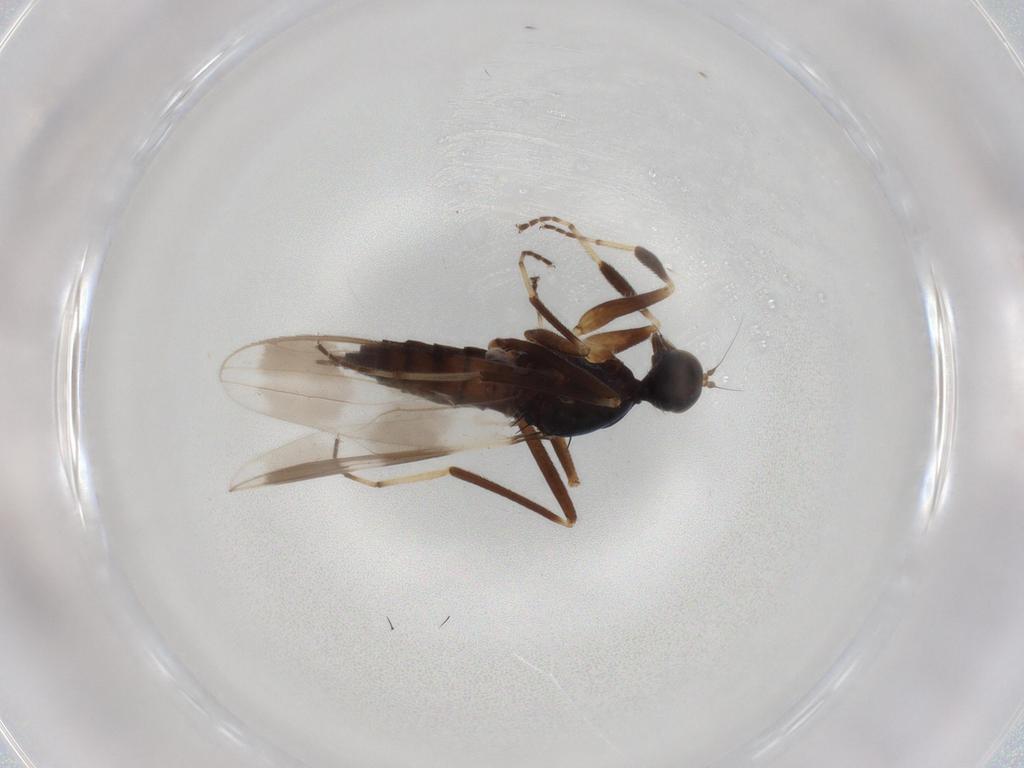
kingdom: Animalia
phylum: Arthropoda
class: Insecta
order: Diptera
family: Hybotidae
